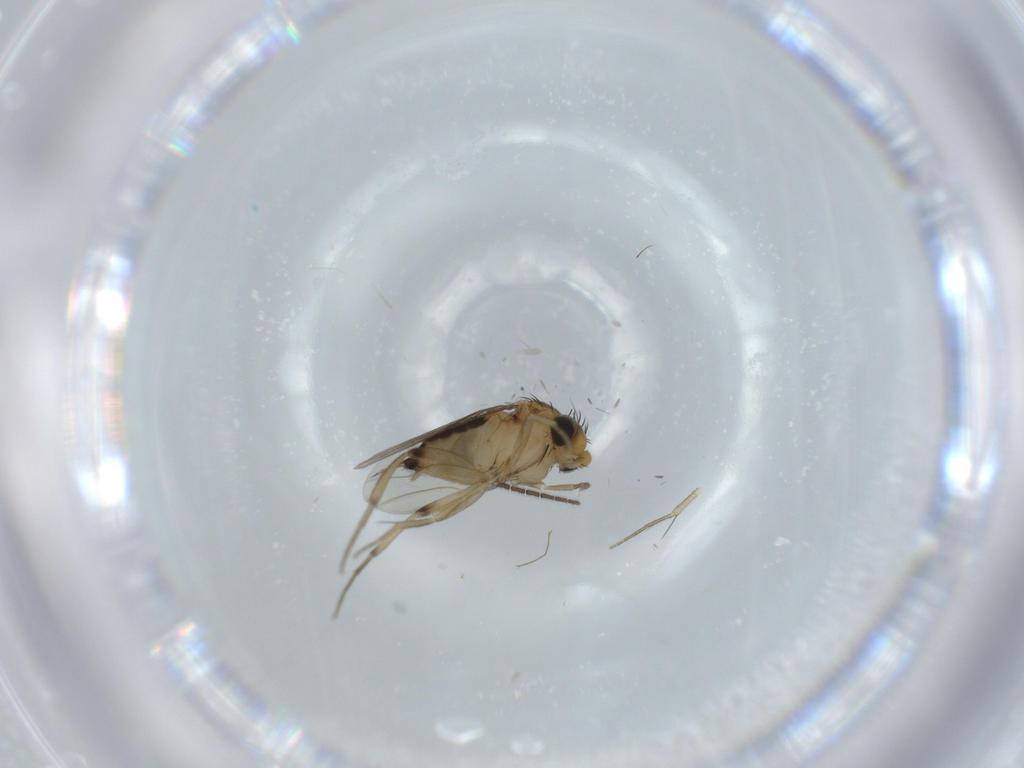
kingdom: Animalia
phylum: Arthropoda
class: Insecta
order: Diptera
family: Sciaridae
